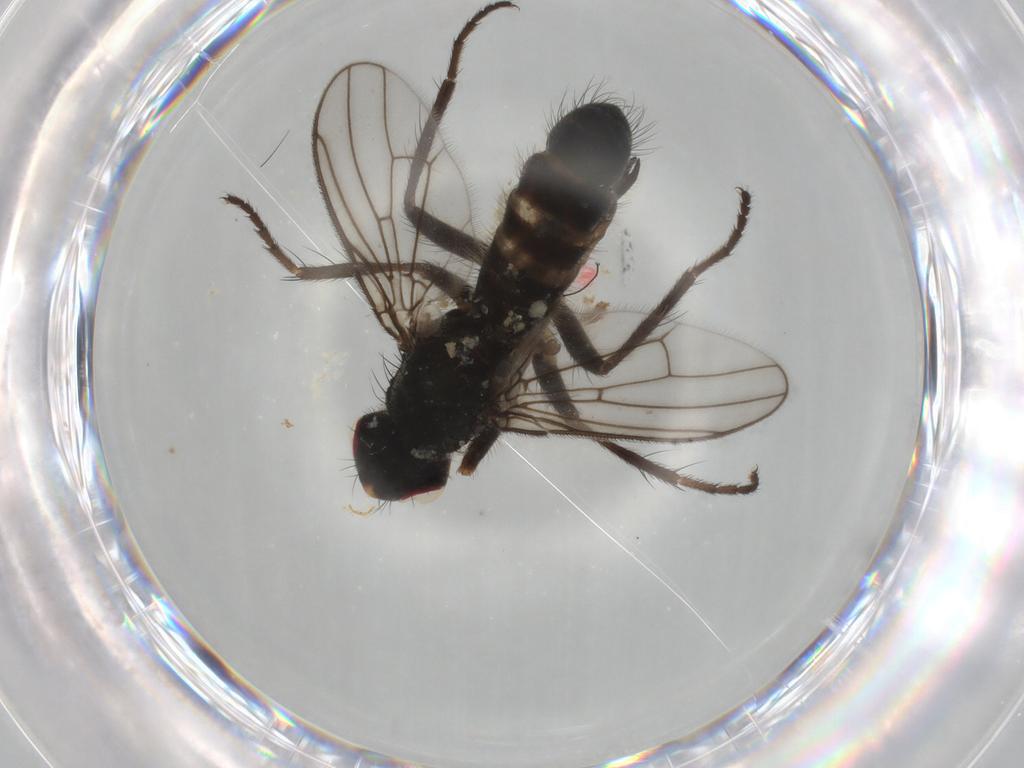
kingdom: Animalia
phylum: Arthropoda
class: Insecta
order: Diptera
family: Scathophagidae
